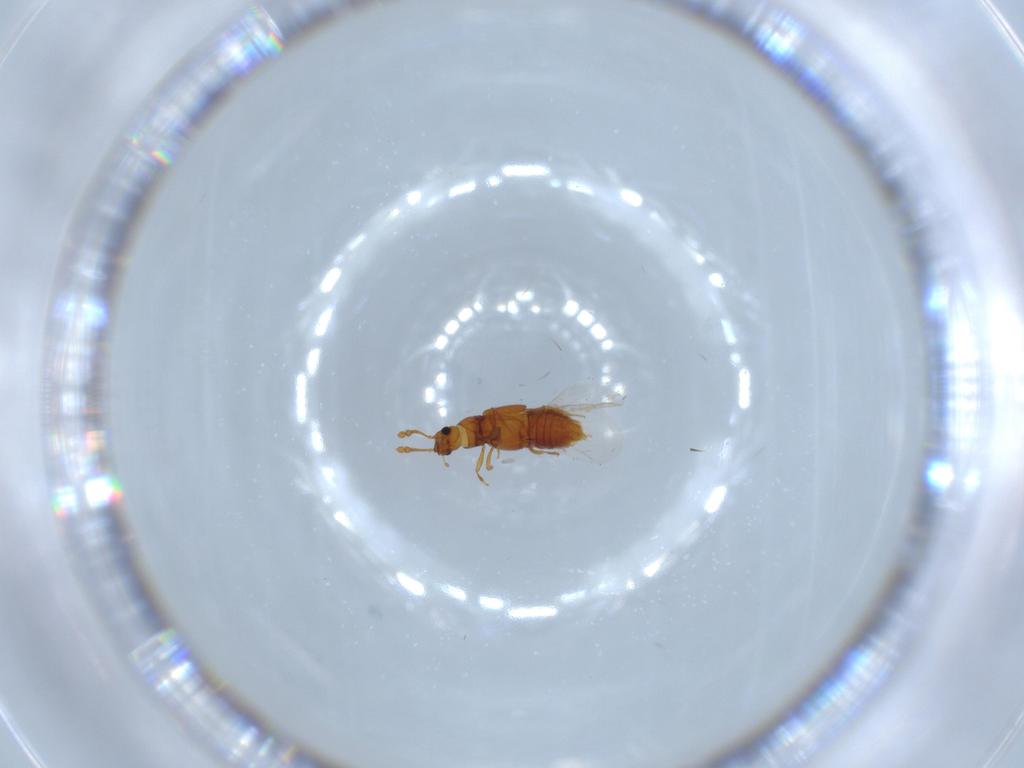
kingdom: Animalia
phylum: Arthropoda
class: Insecta
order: Coleoptera
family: Staphylinidae
